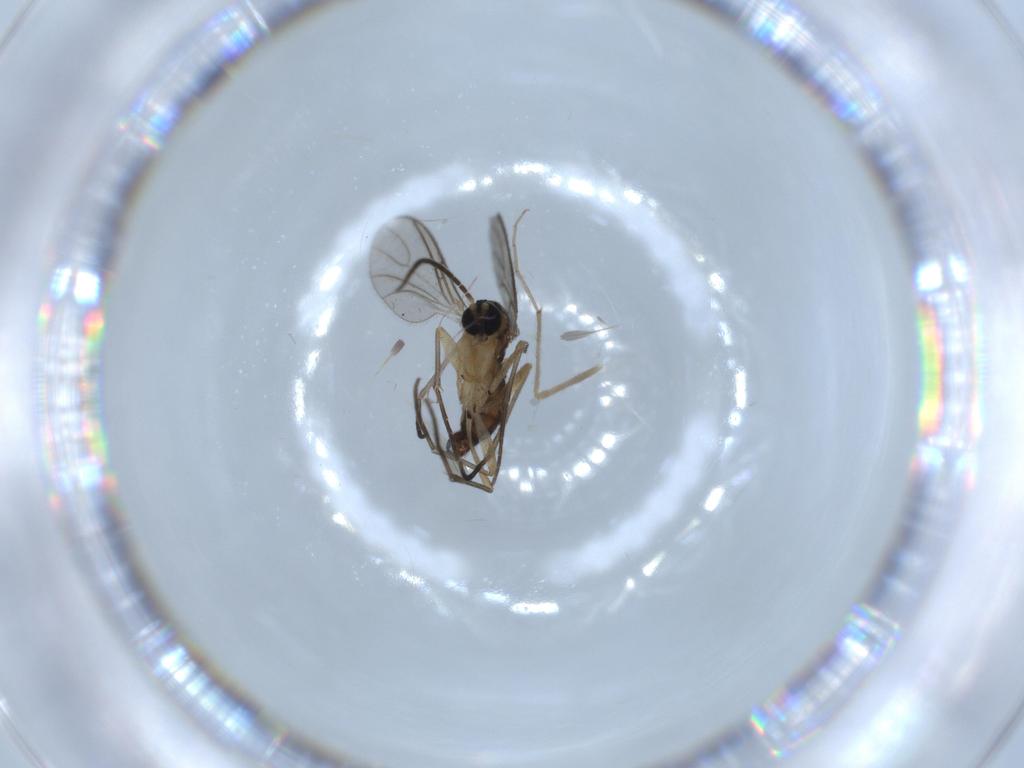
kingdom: Animalia
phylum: Arthropoda
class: Insecta
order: Diptera
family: Sciaridae
